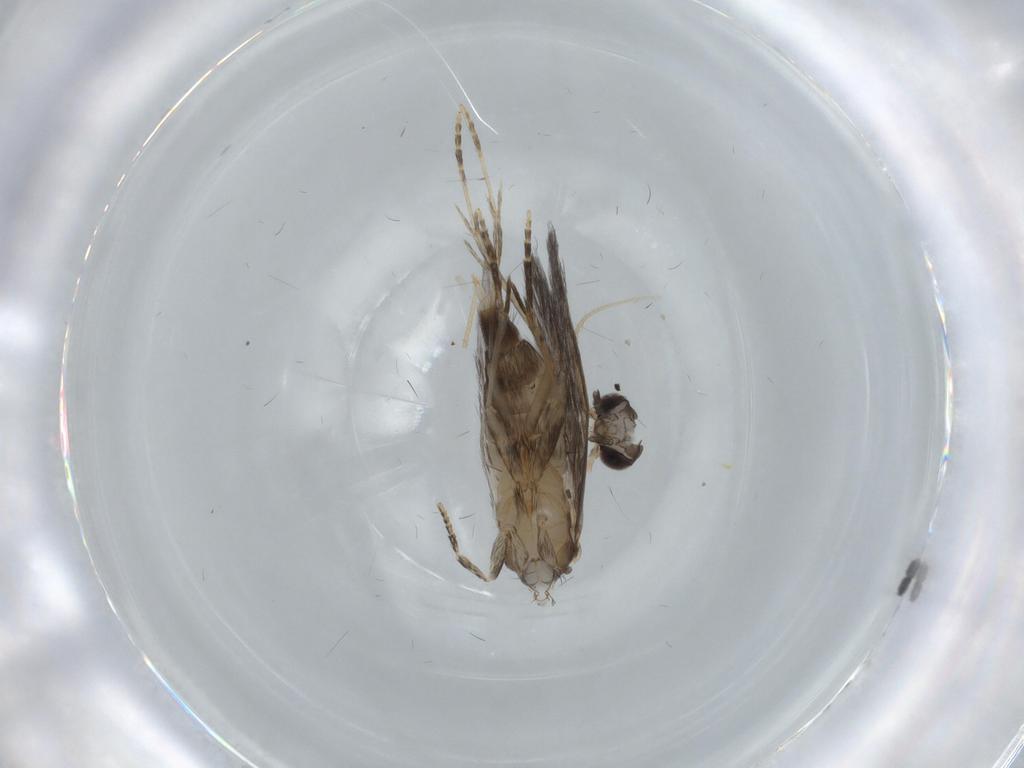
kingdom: Animalia
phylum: Arthropoda
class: Insecta
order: Trichoptera
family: Hydroptilidae
